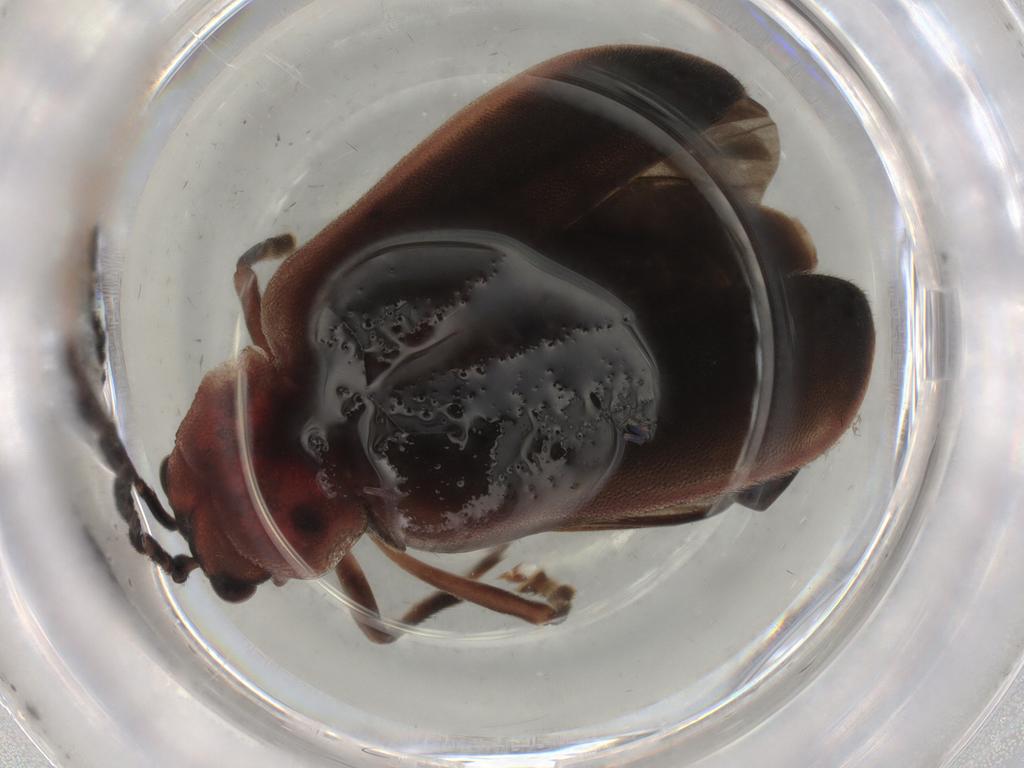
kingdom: Animalia
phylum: Arthropoda
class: Insecta
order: Coleoptera
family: Chrysomelidae
